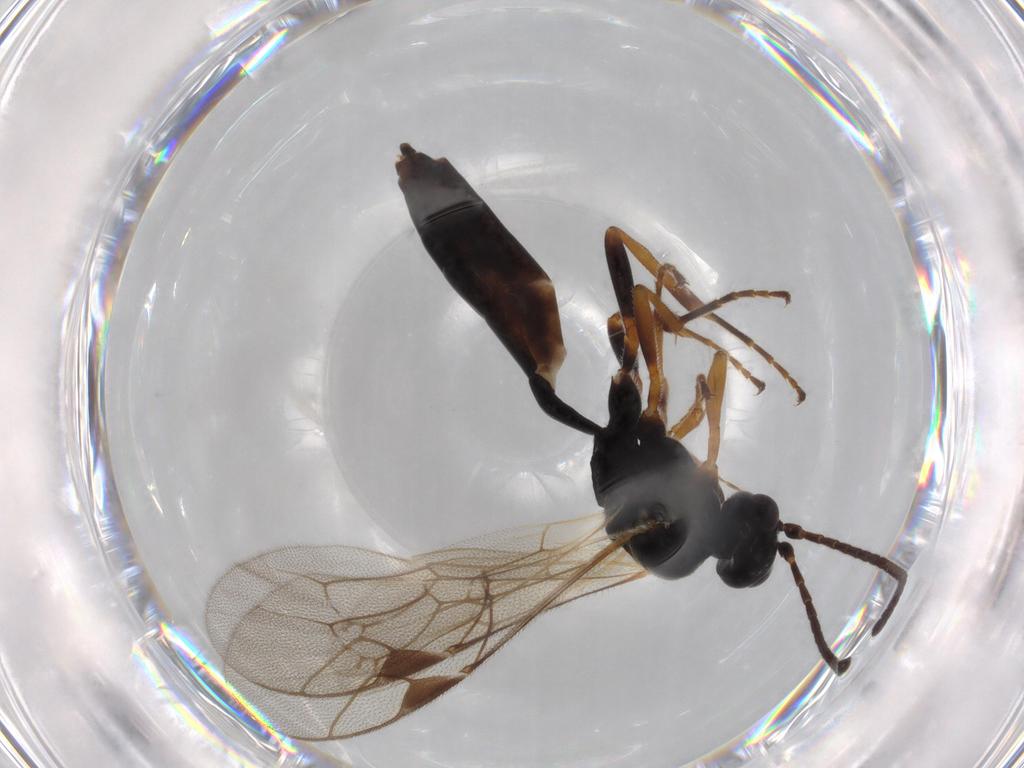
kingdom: Animalia
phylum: Arthropoda
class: Insecta
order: Hymenoptera
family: Ichneumonidae
